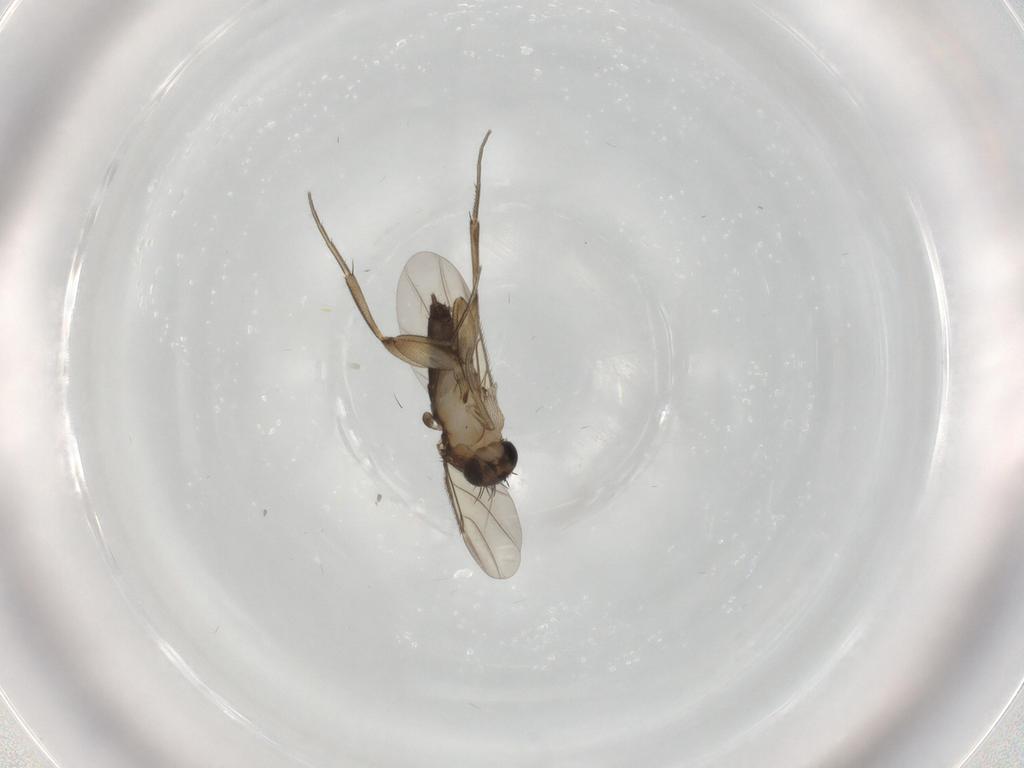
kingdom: Animalia
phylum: Arthropoda
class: Insecta
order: Diptera
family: Phoridae
